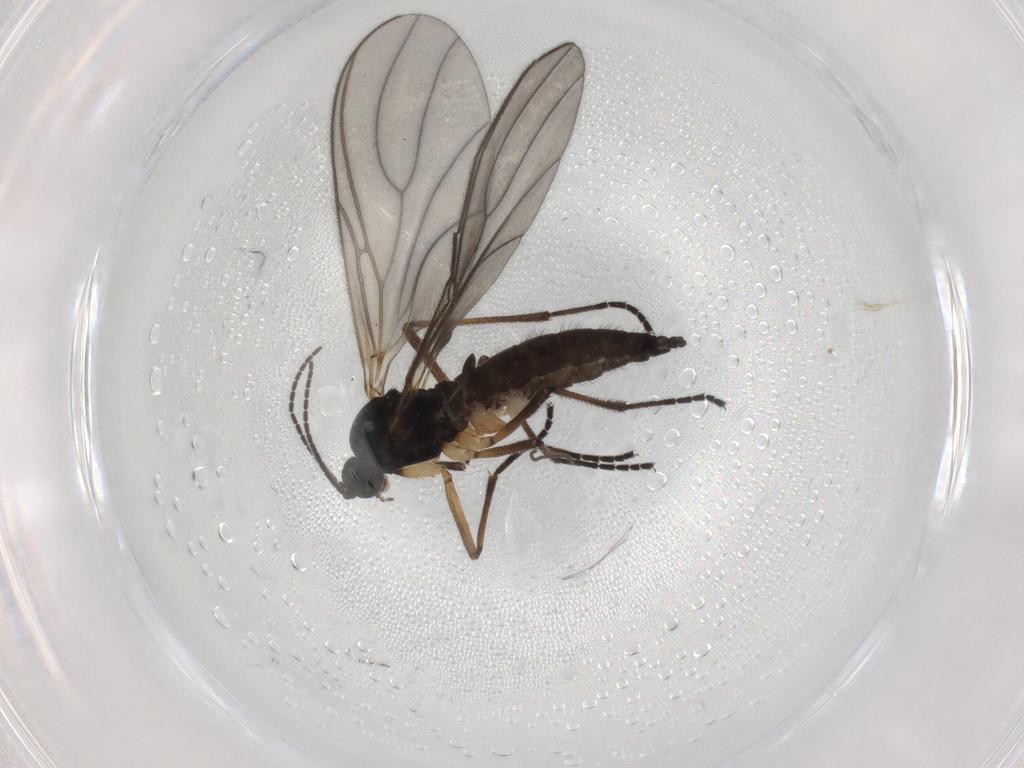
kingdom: Animalia
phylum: Arthropoda
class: Insecta
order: Diptera
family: Sciaridae
